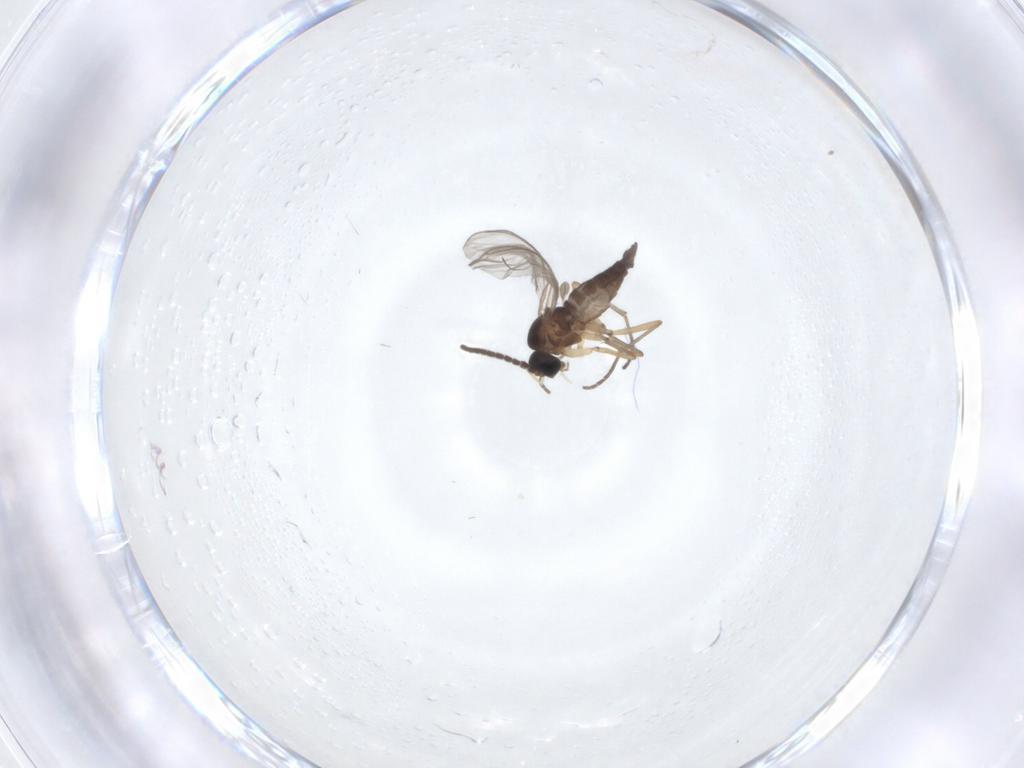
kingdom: Animalia
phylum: Arthropoda
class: Insecta
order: Diptera
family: Sciaridae
